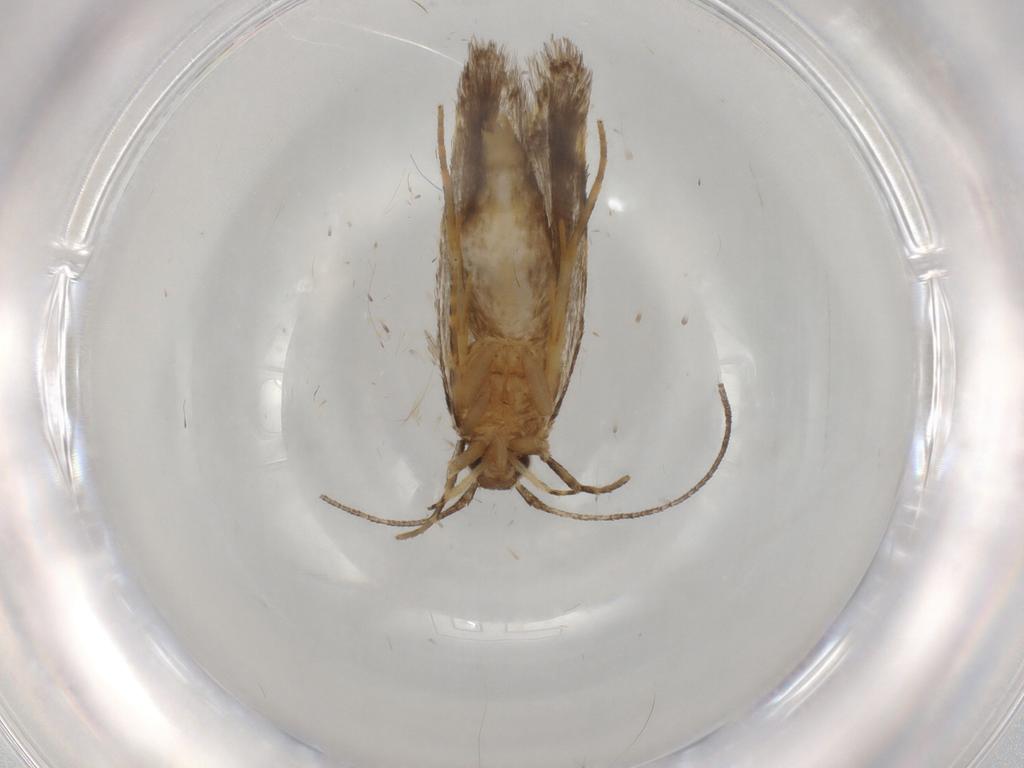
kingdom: Animalia
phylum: Arthropoda
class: Insecta
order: Lepidoptera
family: Autostichidae
